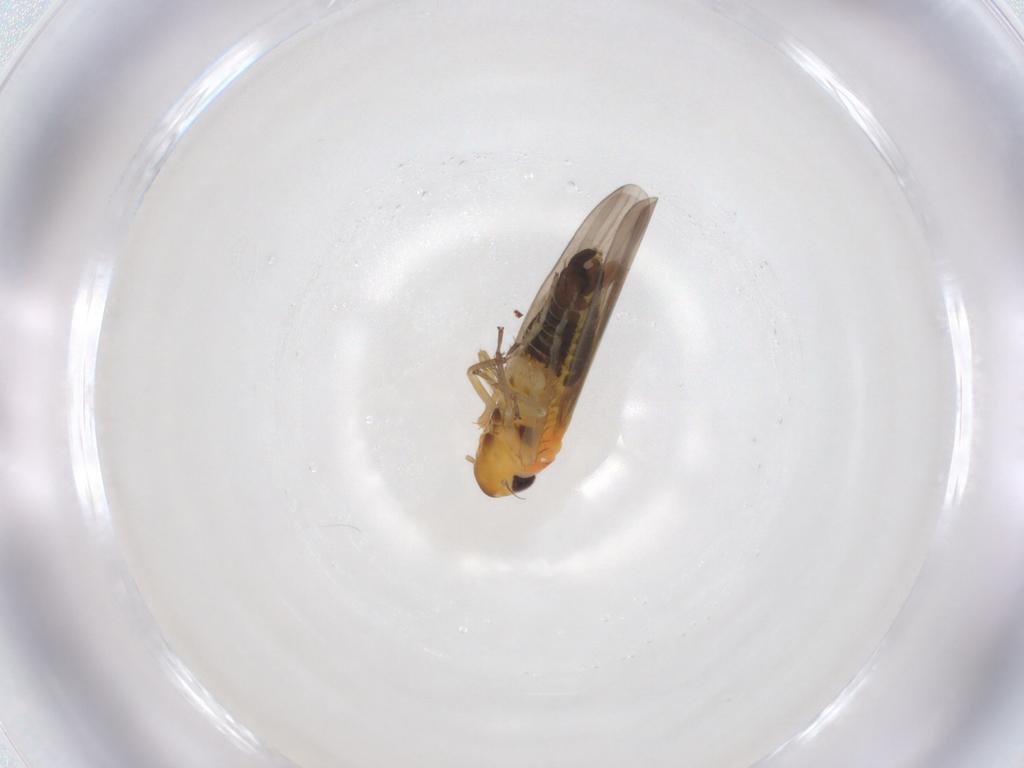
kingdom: Animalia
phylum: Arthropoda
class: Insecta
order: Hemiptera
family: Cicadellidae
